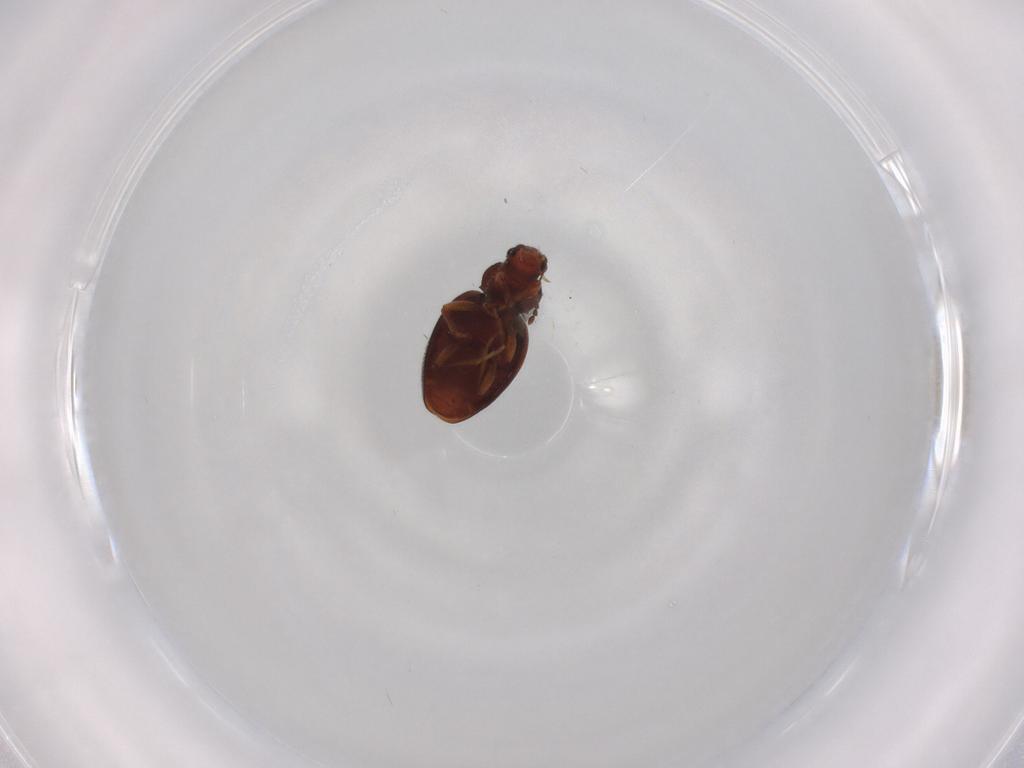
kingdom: Animalia
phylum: Arthropoda
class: Insecta
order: Coleoptera
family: Latridiidae
